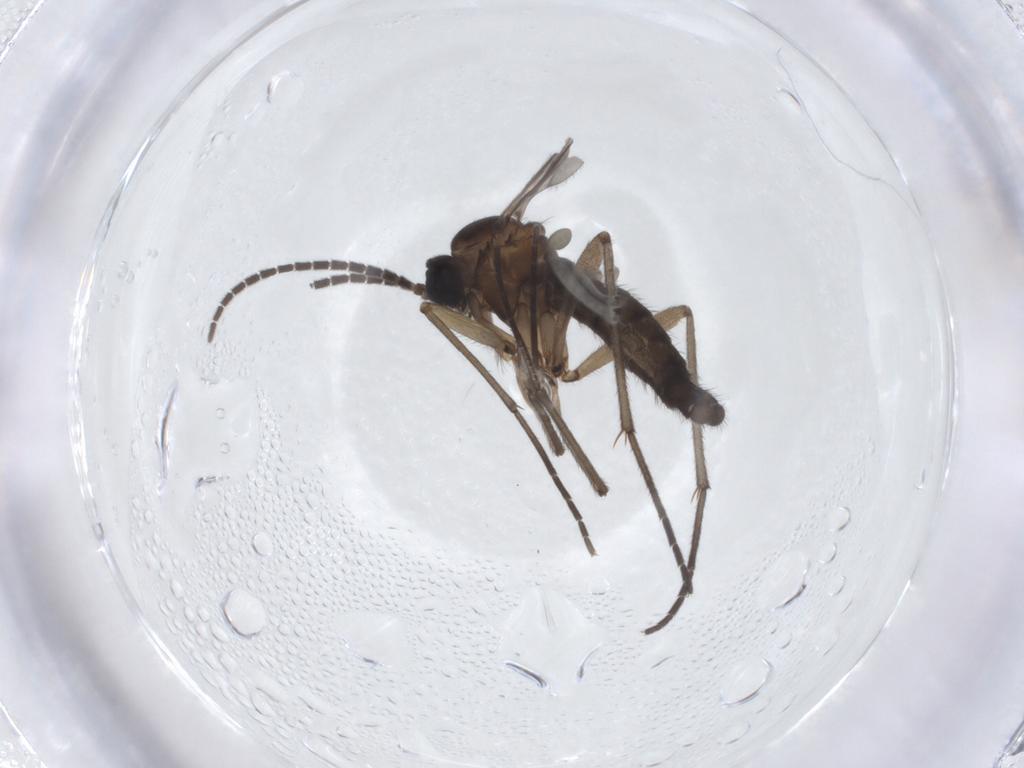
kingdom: Animalia
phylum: Arthropoda
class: Insecta
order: Diptera
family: Sciaridae
